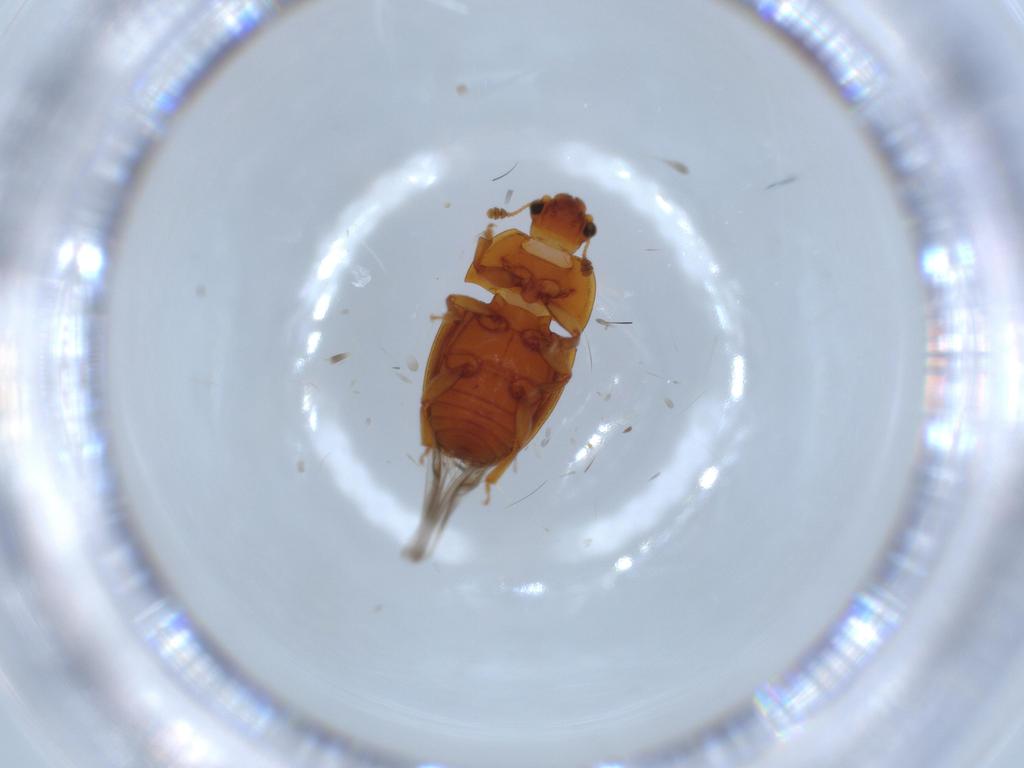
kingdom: Animalia
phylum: Arthropoda
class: Insecta
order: Coleoptera
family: Nitidulidae
